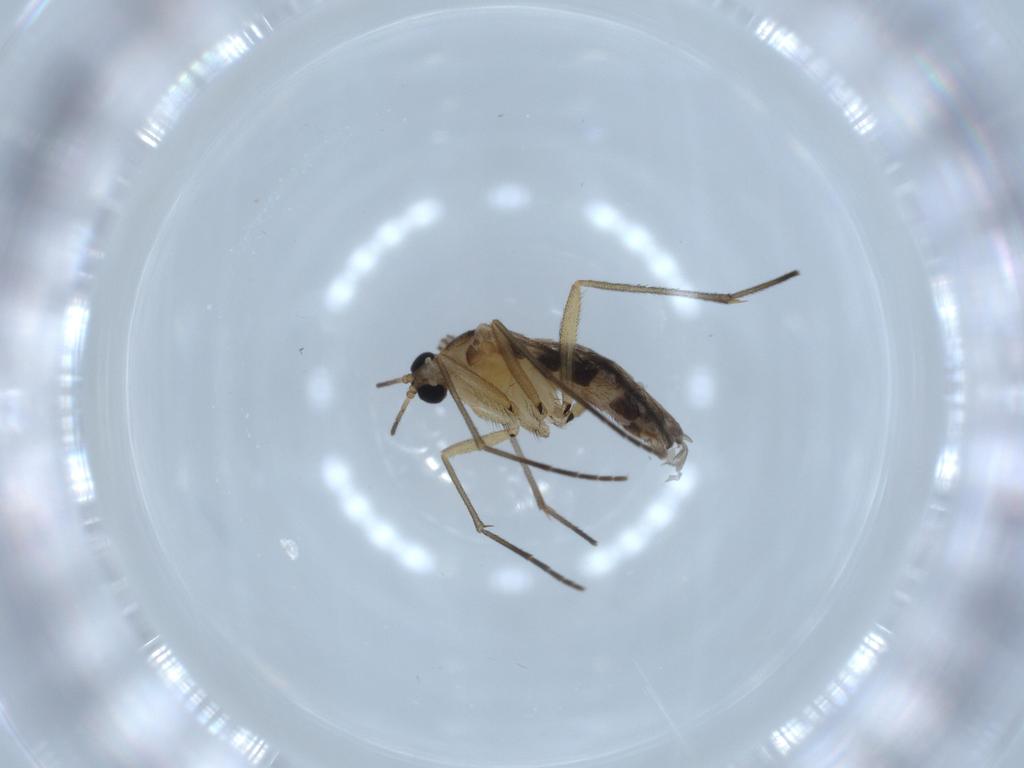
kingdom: Animalia
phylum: Arthropoda
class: Insecta
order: Diptera
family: Sciaridae
